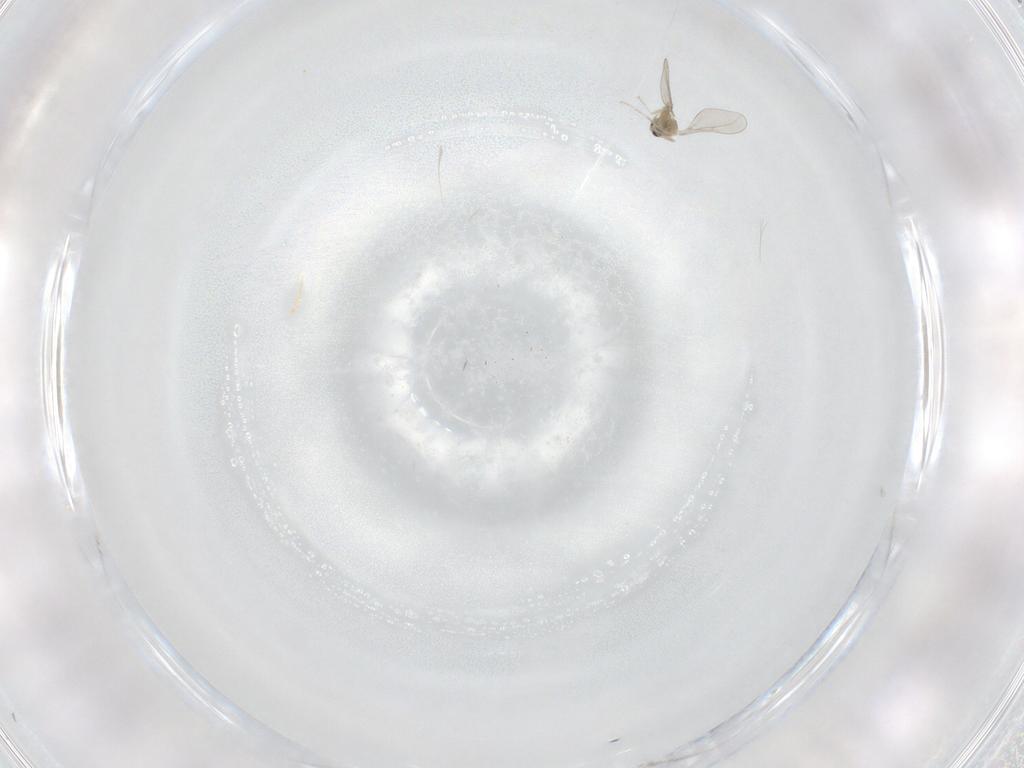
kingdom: Animalia
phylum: Arthropoda
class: Insecta
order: Diptera
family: Cecidomyiidae
